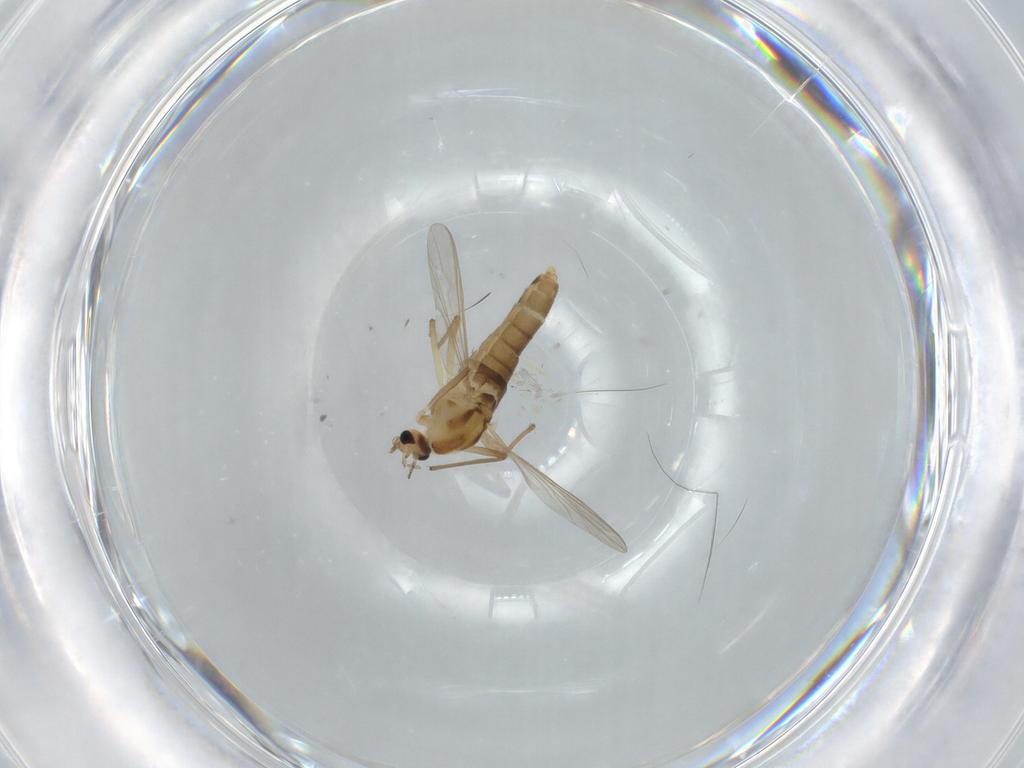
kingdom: Animalia
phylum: Arthropoda
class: Insecta
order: Diptera
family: Chironomidae
